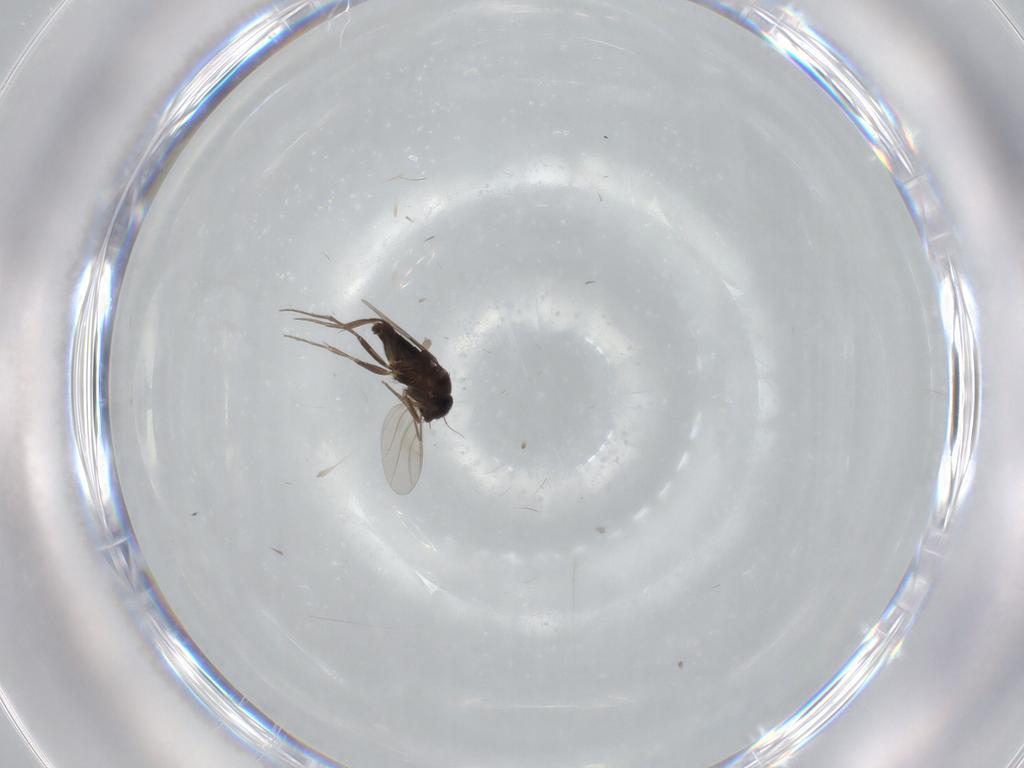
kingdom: Animalia
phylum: Arthropoda
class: Insecta
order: Diptera
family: Phoridae
